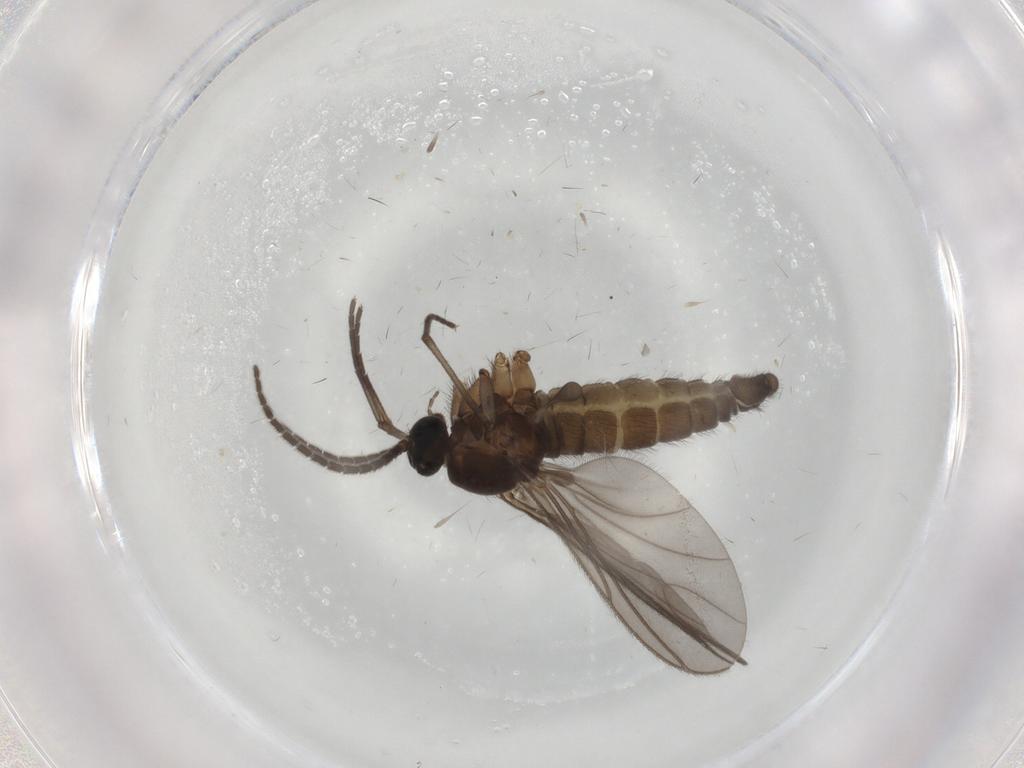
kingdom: Animalia
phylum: Arthropoda
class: Insecta
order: Diptera
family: Sciaridae
